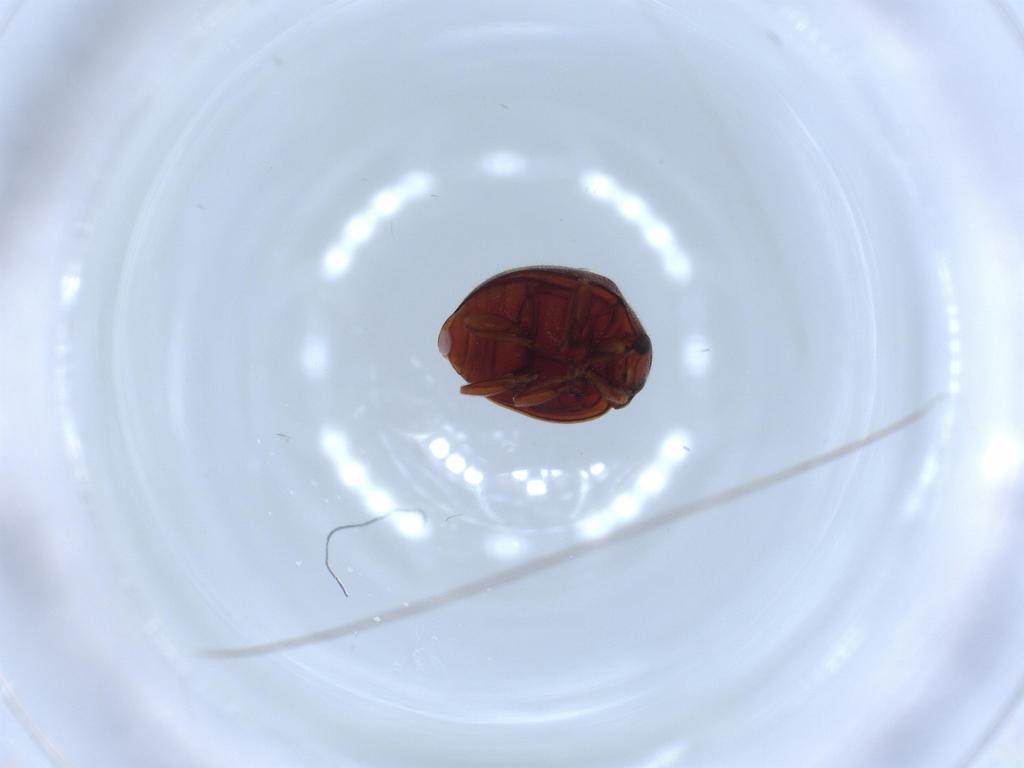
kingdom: Animalia
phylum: Arthropoda
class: Insecta
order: Coleoptera
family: Coccinellidae
